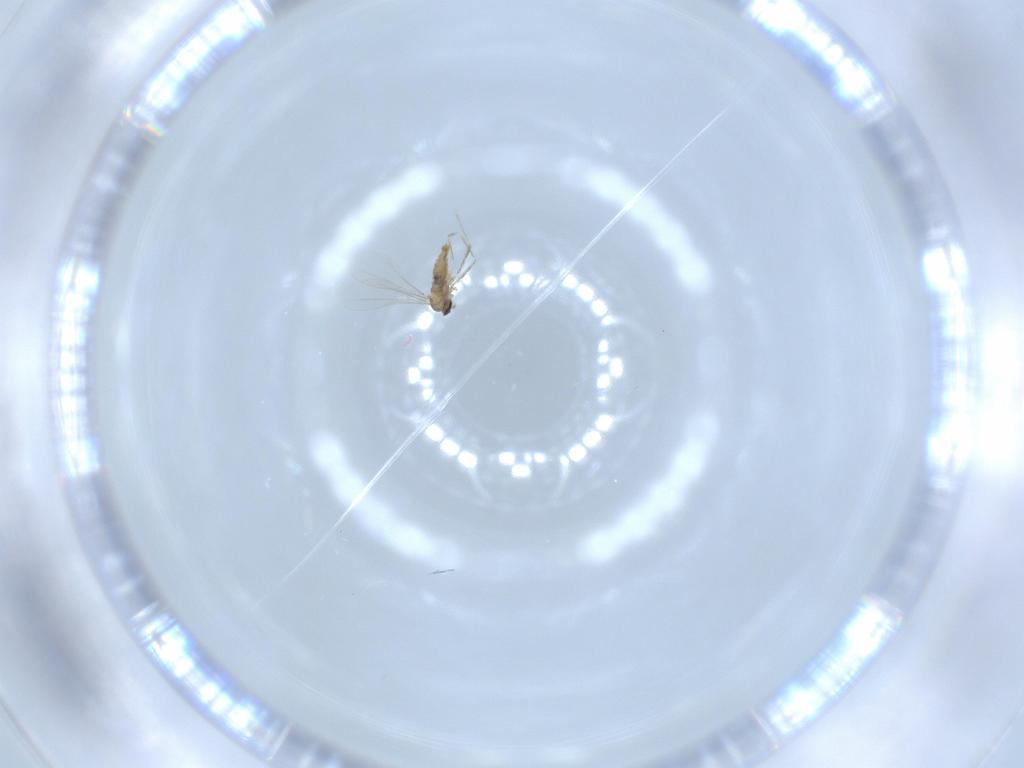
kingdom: Animalia
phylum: Arthropoda
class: Insecta
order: Diptera
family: Cecidomyiidae
